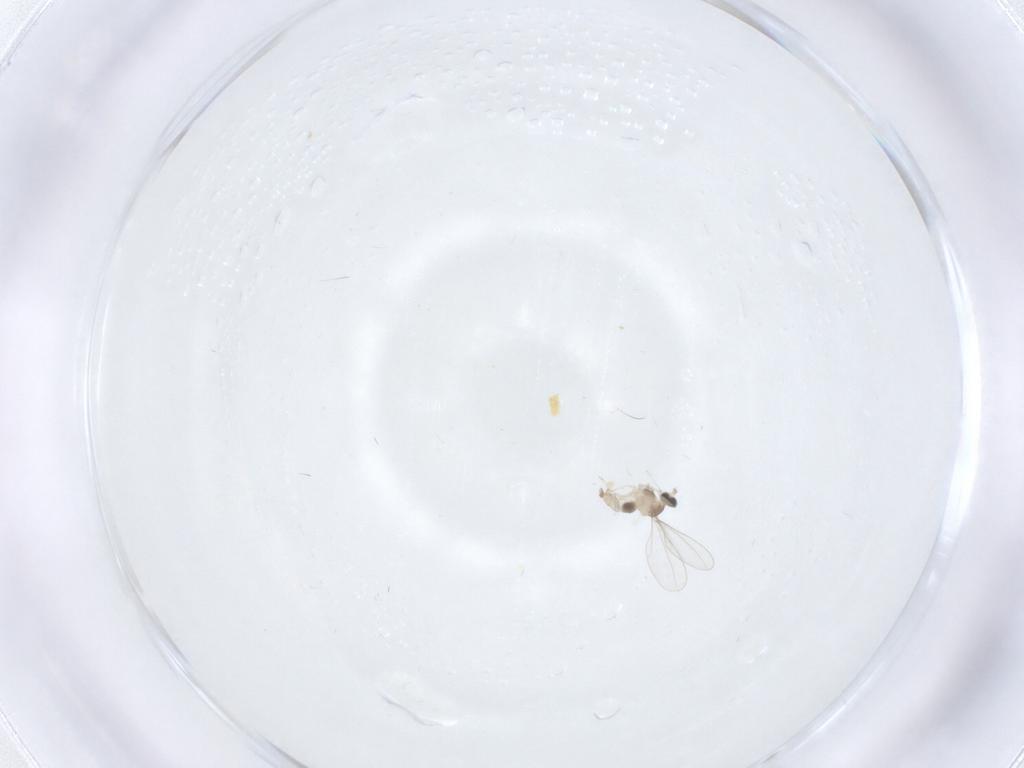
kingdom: Animalia
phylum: Arthropoda
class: Insecta
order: Diptera
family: Cecidomyiidae
